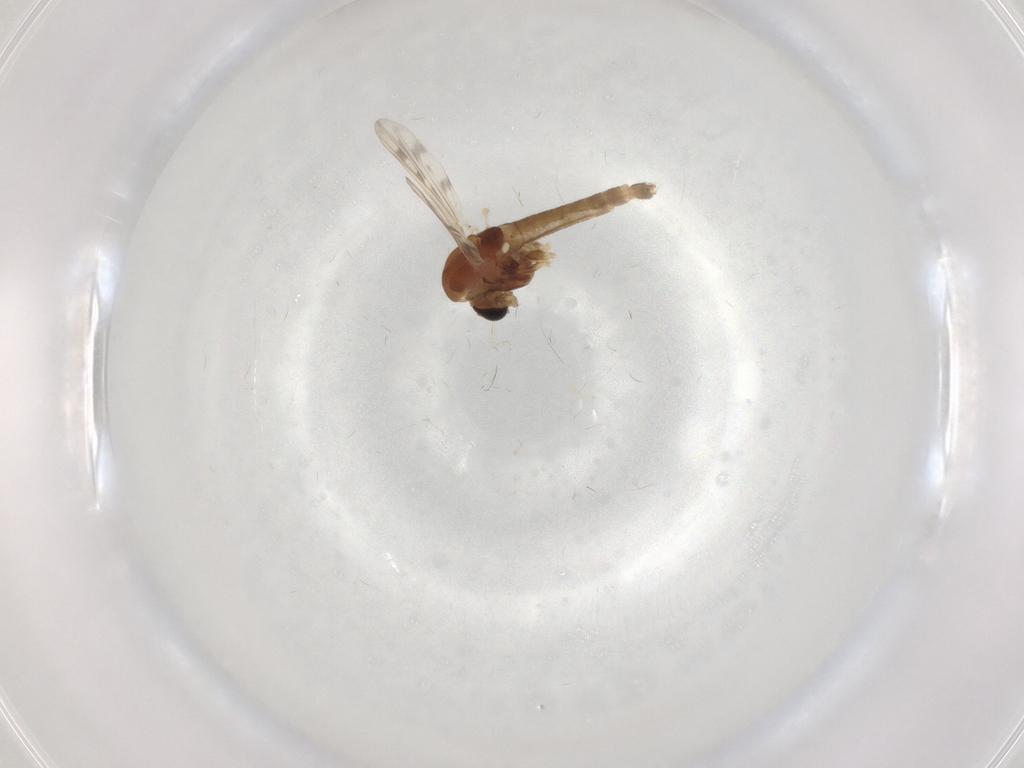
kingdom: Animalia
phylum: Arthropoda
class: Insecta
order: Diptera
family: Chironomidae
